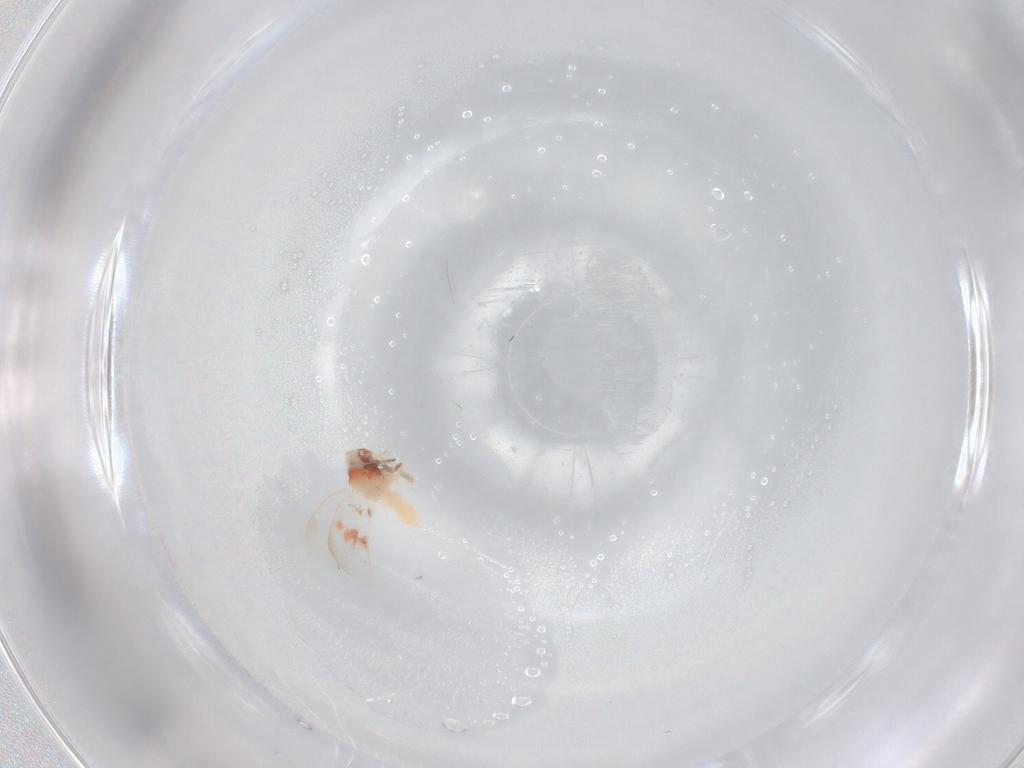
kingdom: Animalia
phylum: Arthropoda
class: Insecta
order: Hemiptera
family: Aleyrodidae
